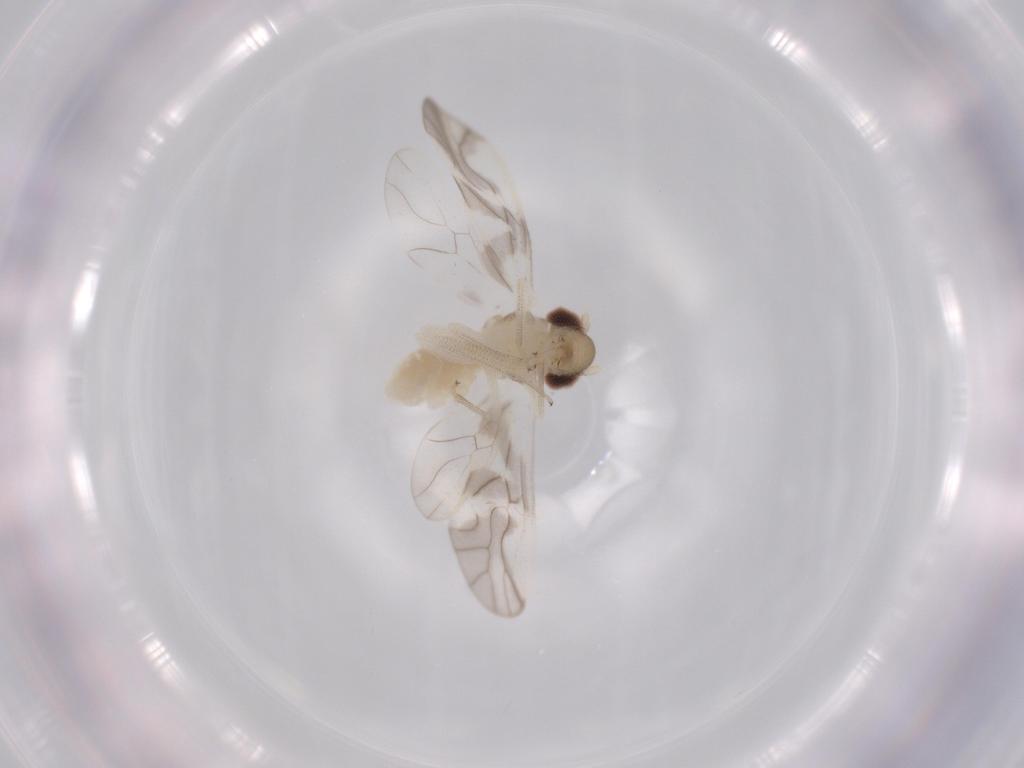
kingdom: Animalia
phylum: Arthropoda
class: Insecta
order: Psocodea
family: Caeciliusidae
